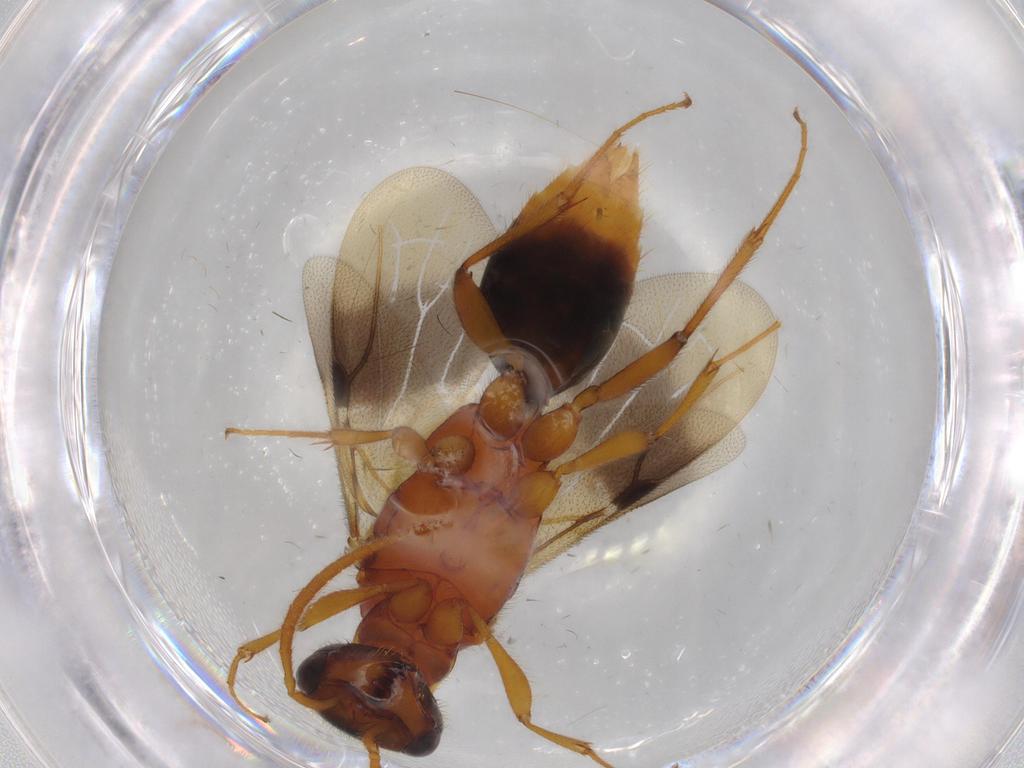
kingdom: Animalia
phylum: Arthropoda
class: Insecta
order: Hymenoptera
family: Bethylidae
